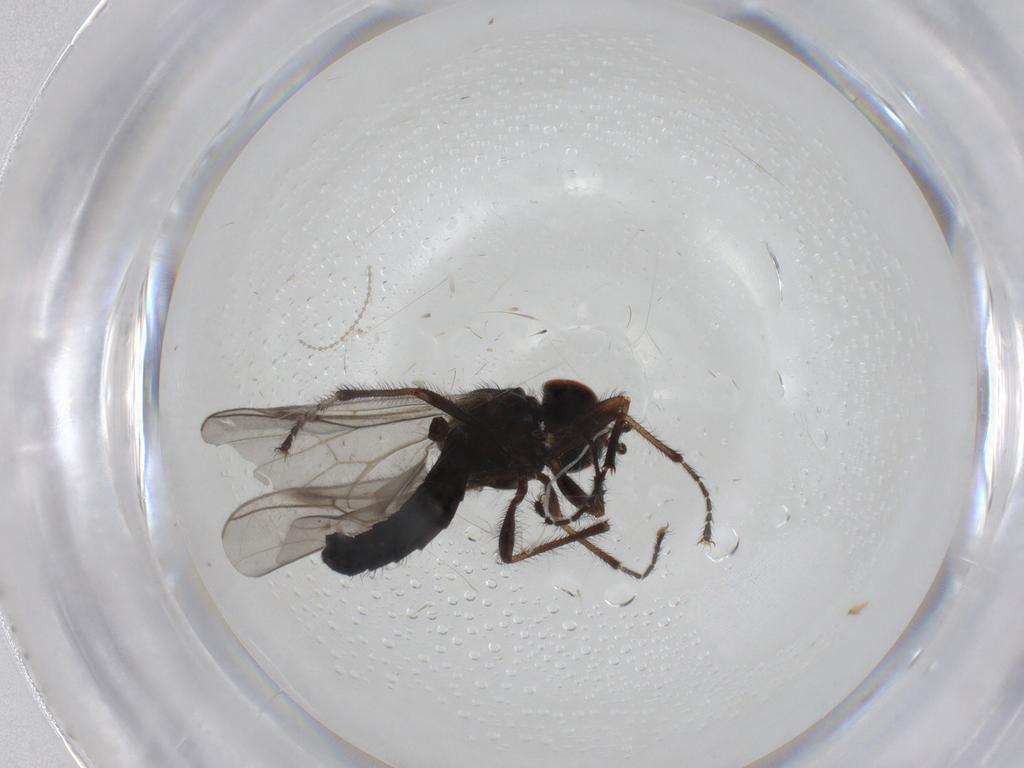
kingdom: Animalia
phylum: Arthropoda
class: Insecta
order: Diptera
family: Bibionidae
